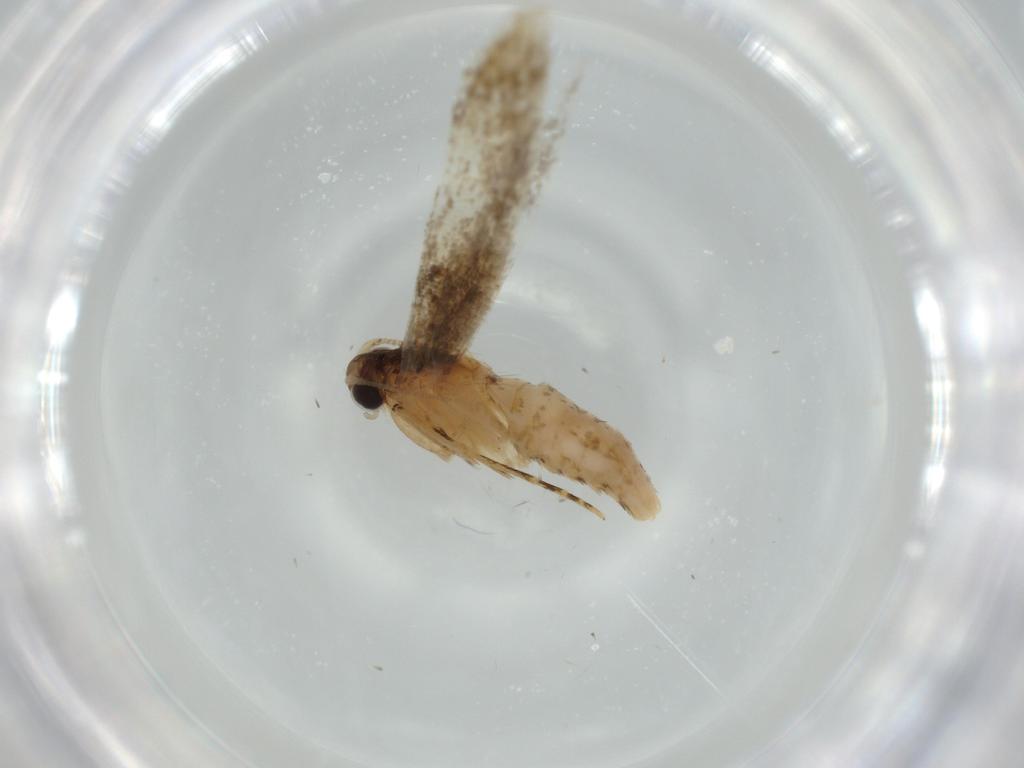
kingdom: Animalia
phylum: Arthropoda
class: Insecta
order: Lepidoptera
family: Tineidae
